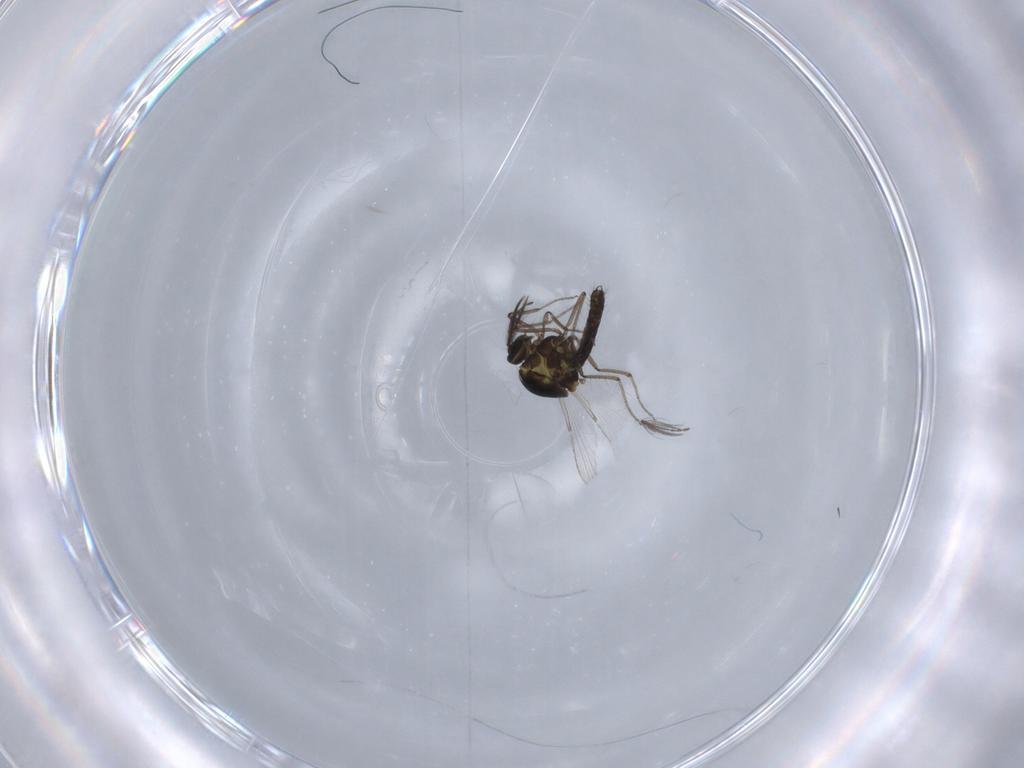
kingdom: Animalia
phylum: Arthropoda
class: Insecta
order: Diptera
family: Ceratopogonidae
